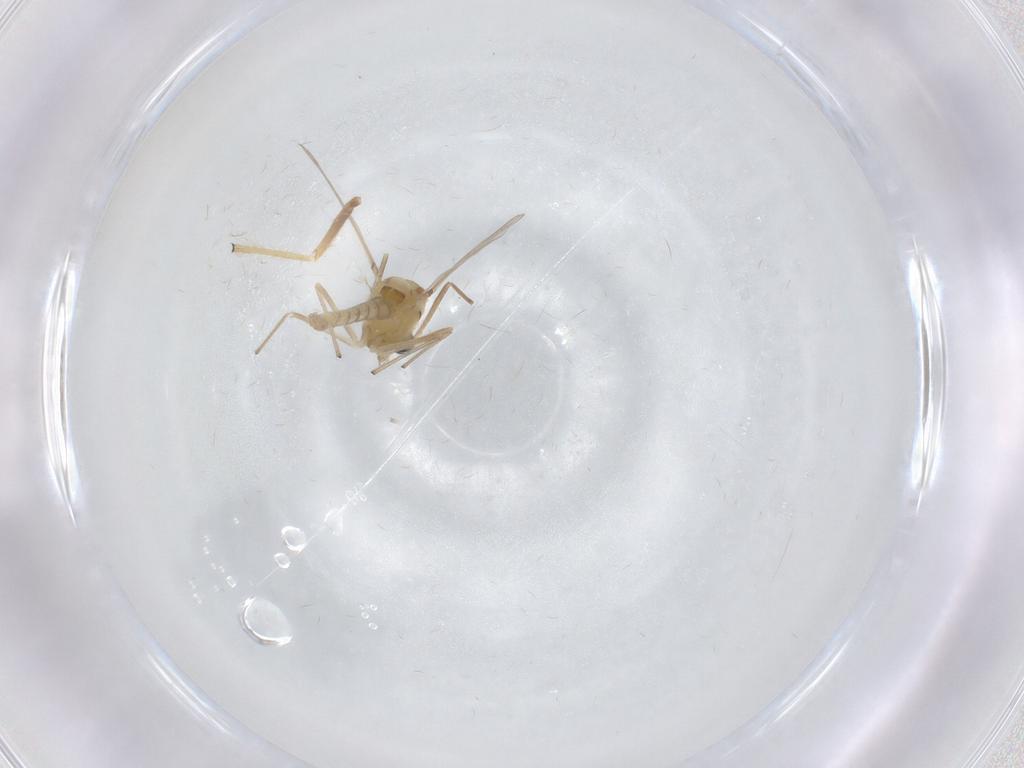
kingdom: Animalia
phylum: Arthropoda
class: Insecta
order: Diptera
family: Chironomidae
